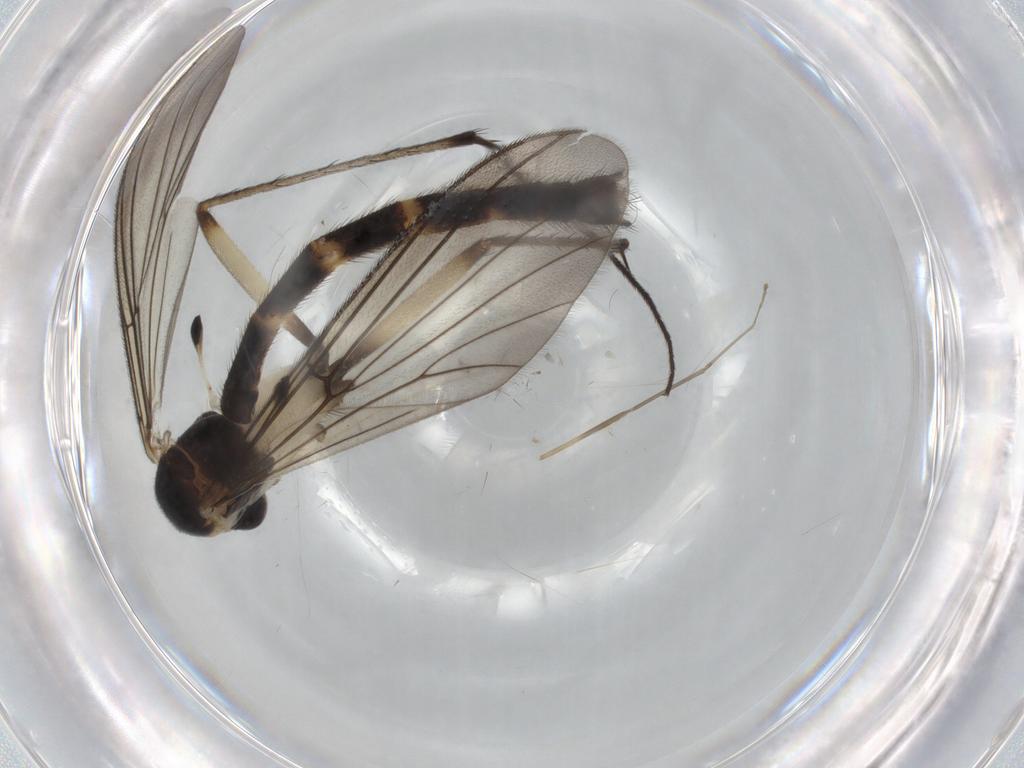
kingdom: Animalia
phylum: Arthropoda
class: Insecta
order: Diptera
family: Mycetophilidae
